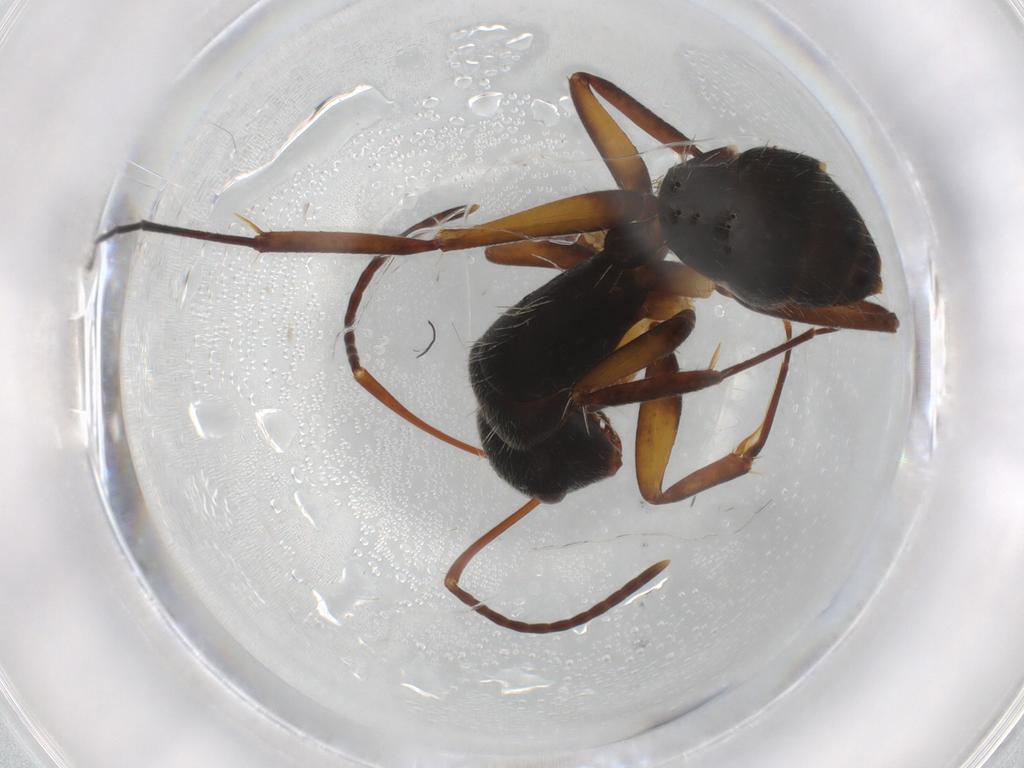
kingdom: Animalia
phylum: Arthropoda
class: Insecta
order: Hymenoptera
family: Formicidae
